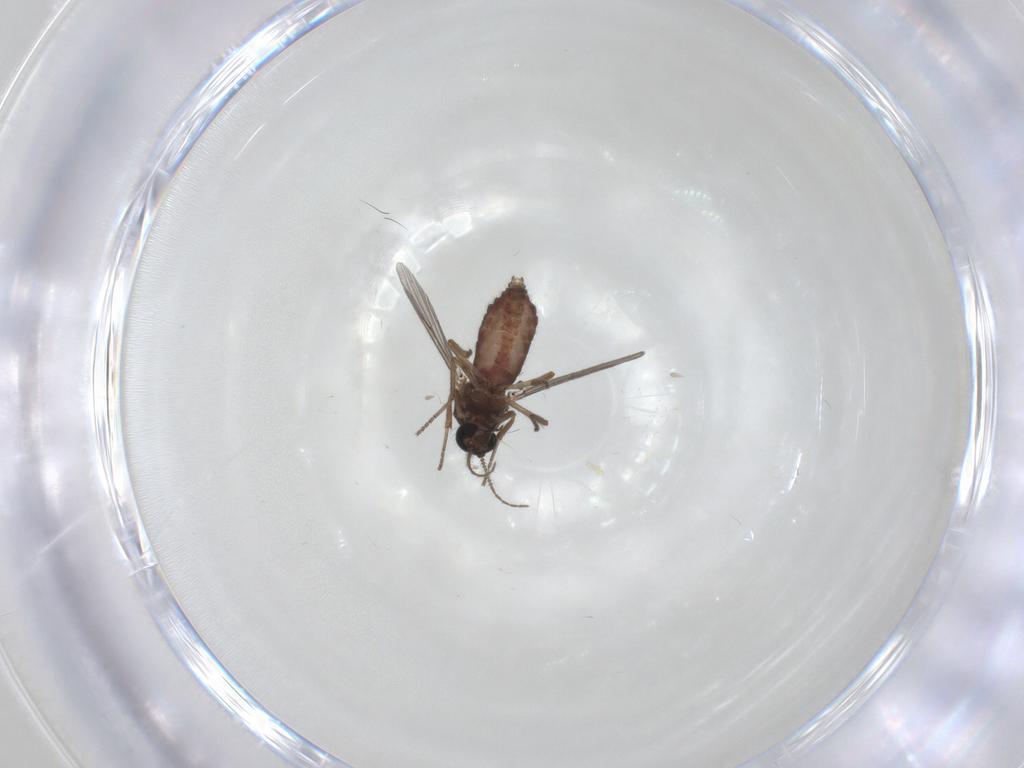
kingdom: Animalia
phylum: Arthropoda
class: Insecta
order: Diptera
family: Ceratopogonidae
